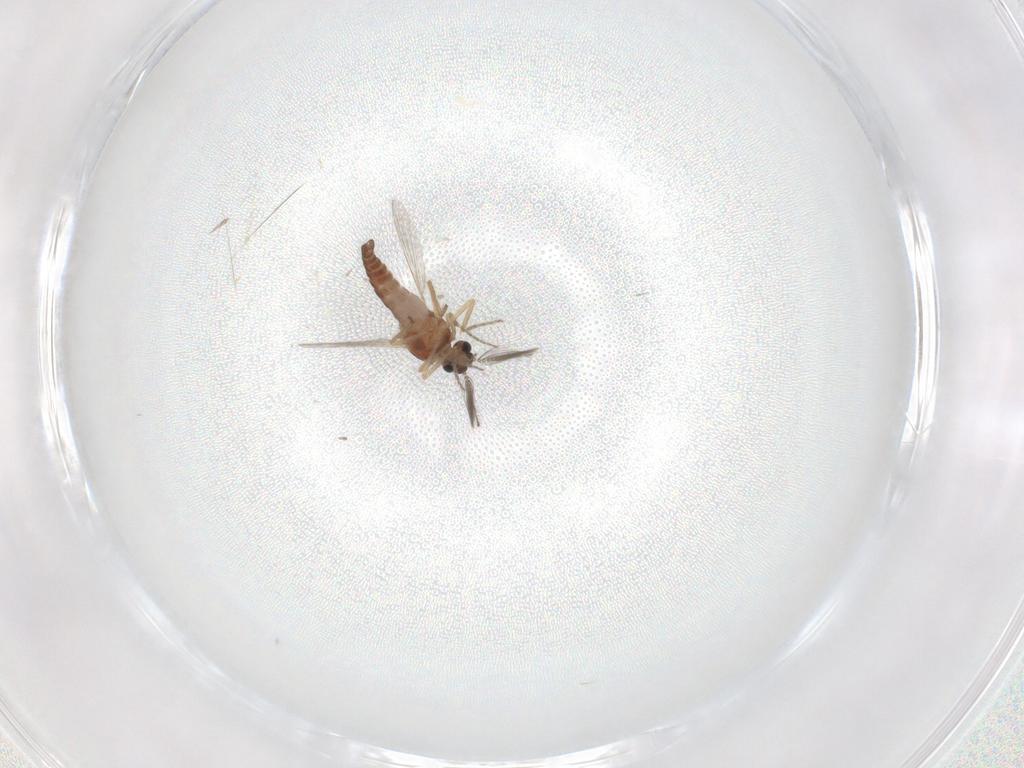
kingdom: Animalia
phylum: Arthropoda
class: Insecta
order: Diptera
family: Ceratopogonidae
